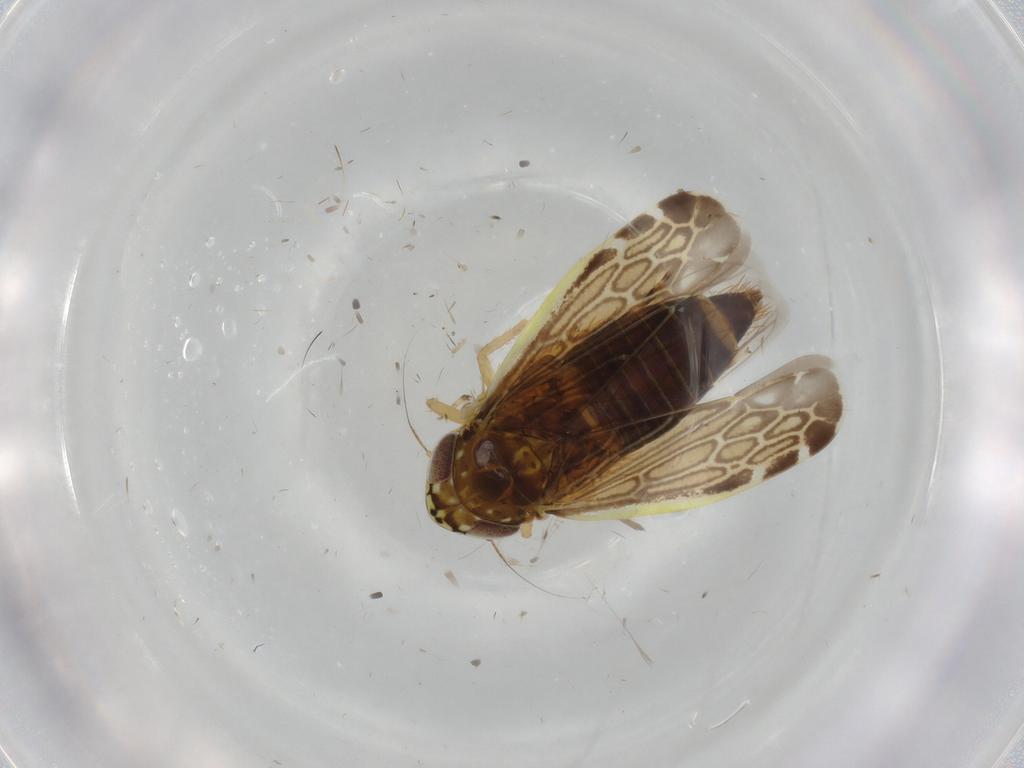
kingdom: Animalia
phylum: Arthropoda
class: Insecta
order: Hemiptera
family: Cicadellidae
